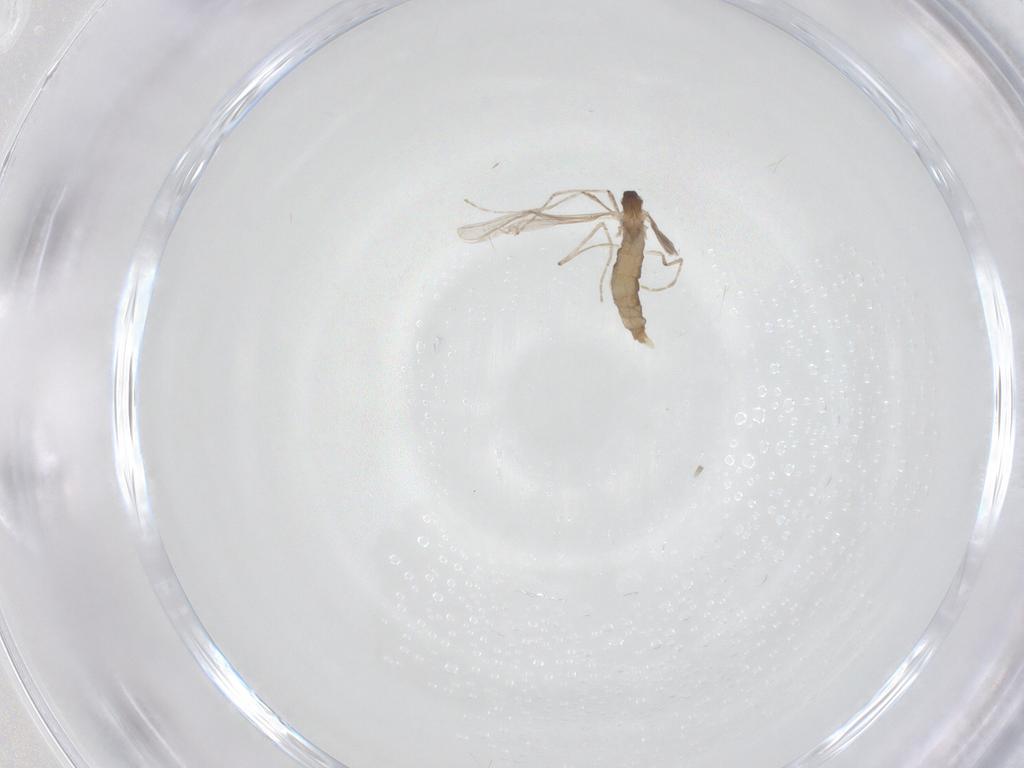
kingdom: Animalia
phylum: Arthropoda
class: Insecta
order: Diptera
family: Cecidomyiidae
